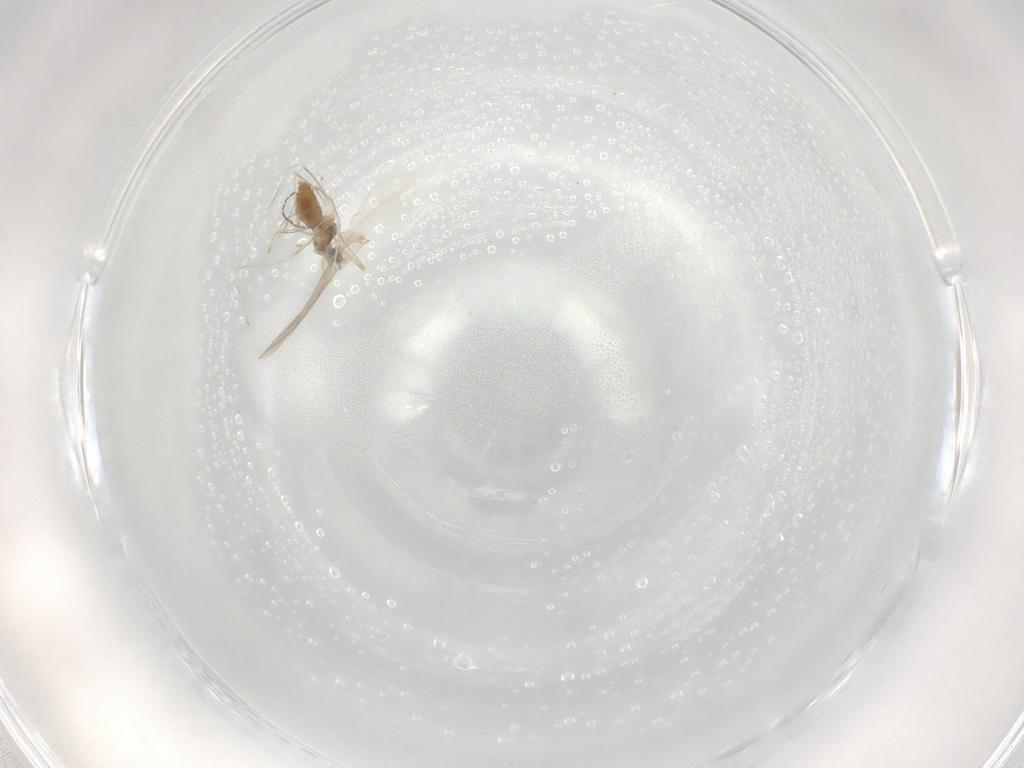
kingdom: Animalia
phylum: Arthropoda
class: Insecta
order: Diptera
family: Cecidomyiidae
